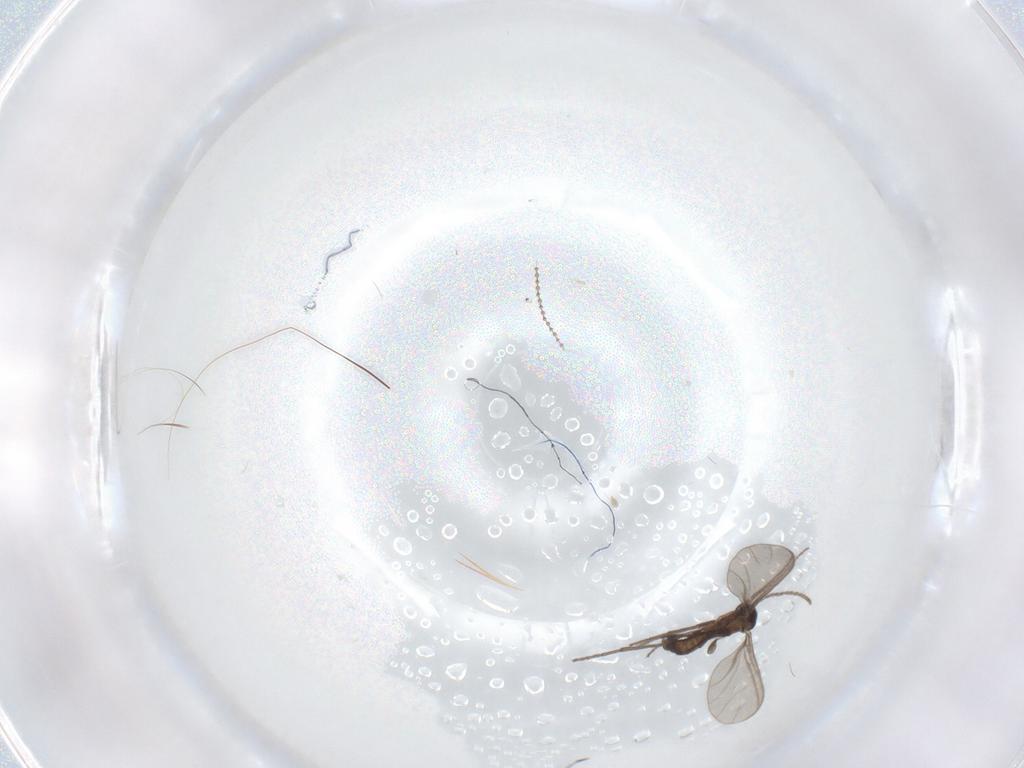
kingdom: Animalia
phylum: Arthropoda
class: Insecta
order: Diptera
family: Sciaridae
